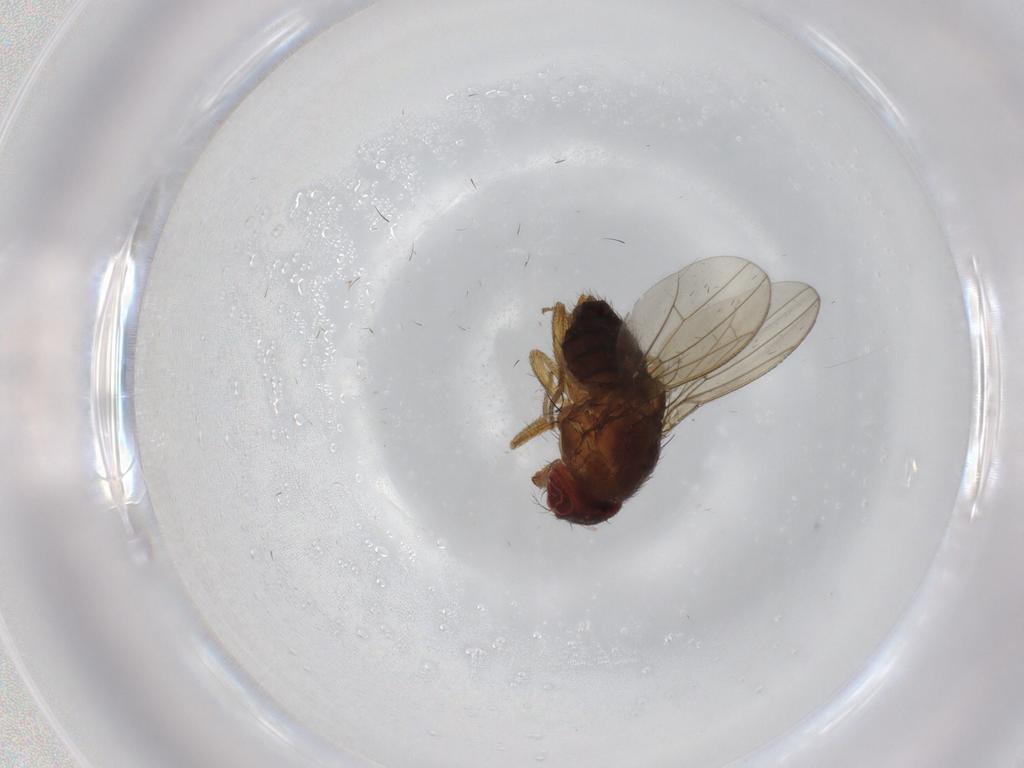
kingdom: Animalia
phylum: Arthropoda
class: Insecta
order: Diptera
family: Drosophilidae
